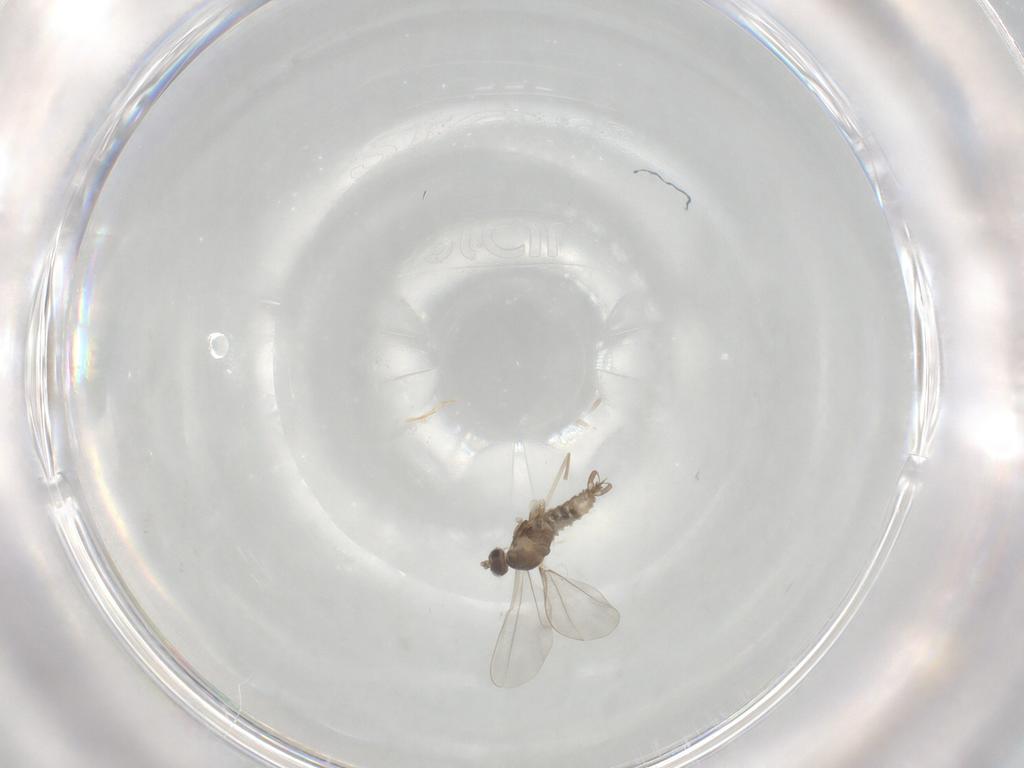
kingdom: Animalia
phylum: Arthropoda
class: Insecta
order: Diptera
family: Cecidomyiidae
